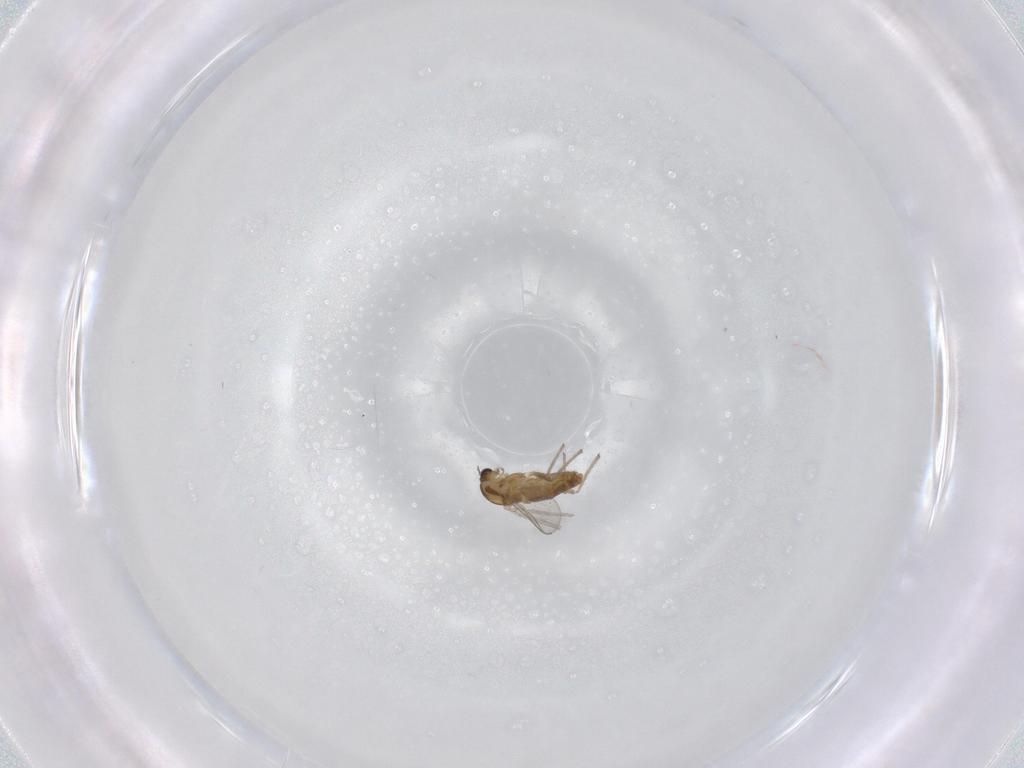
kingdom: Animalia
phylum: Arthropoda
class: Insecta
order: Diptera
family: Chironomidae
